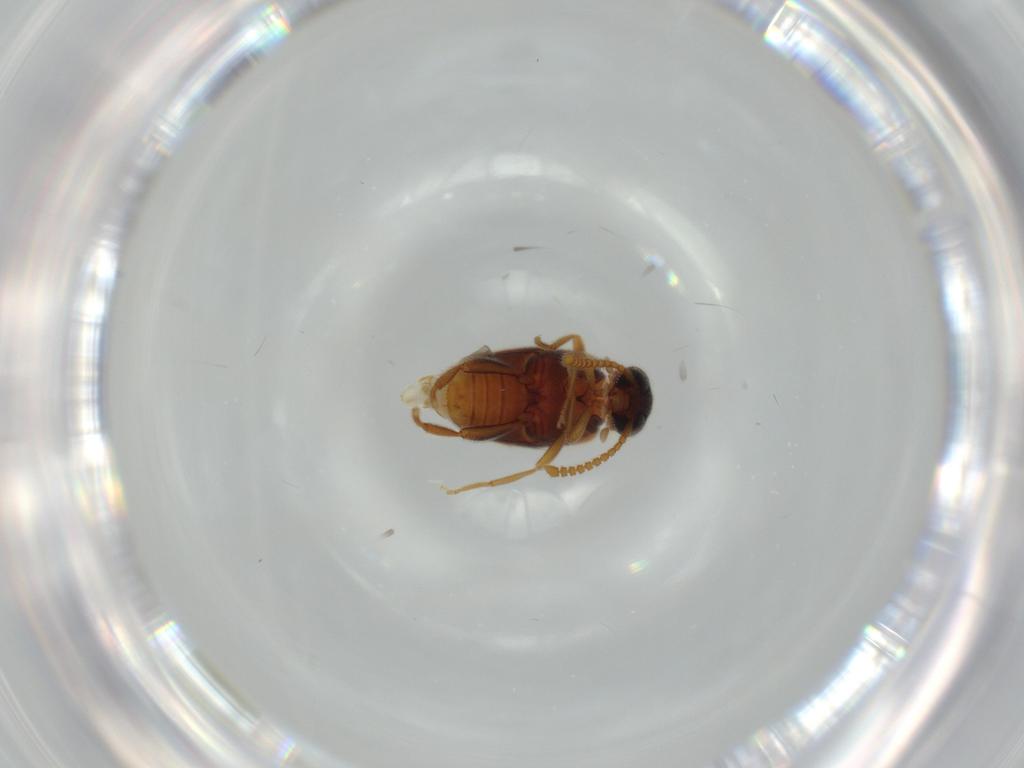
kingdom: Animalia
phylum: Arthropoda
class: Insecta
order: Coleoptera
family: Aderidae
